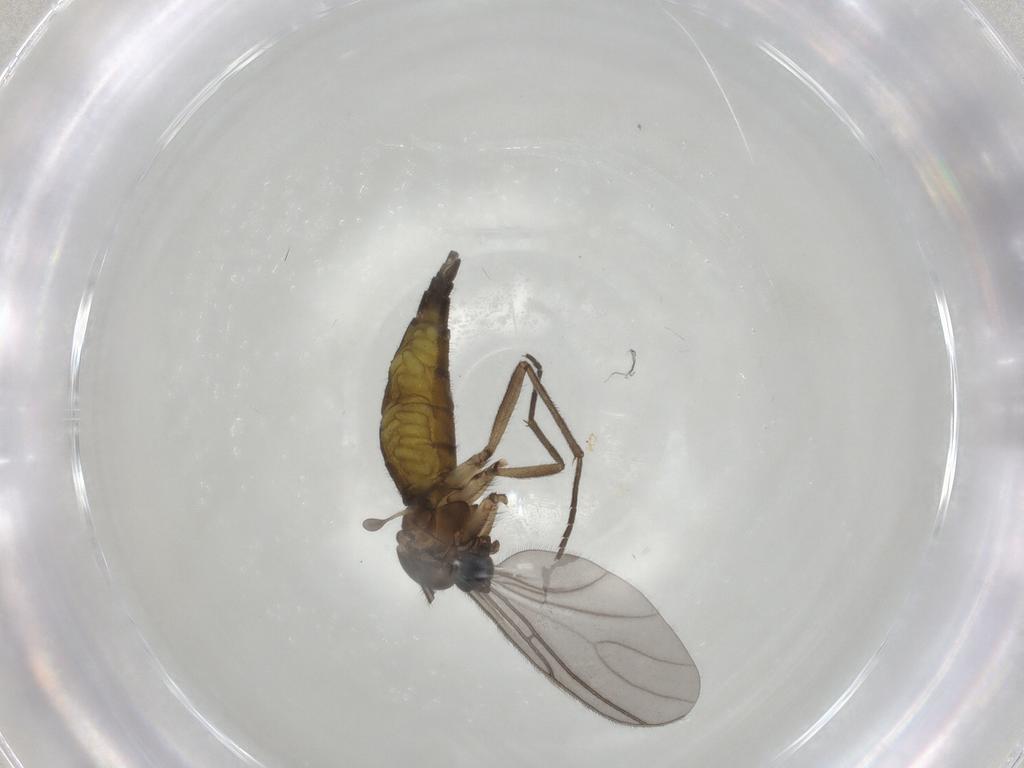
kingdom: Animalia
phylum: Arthropoda
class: Insecta
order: Diptera
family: Sciaridae
